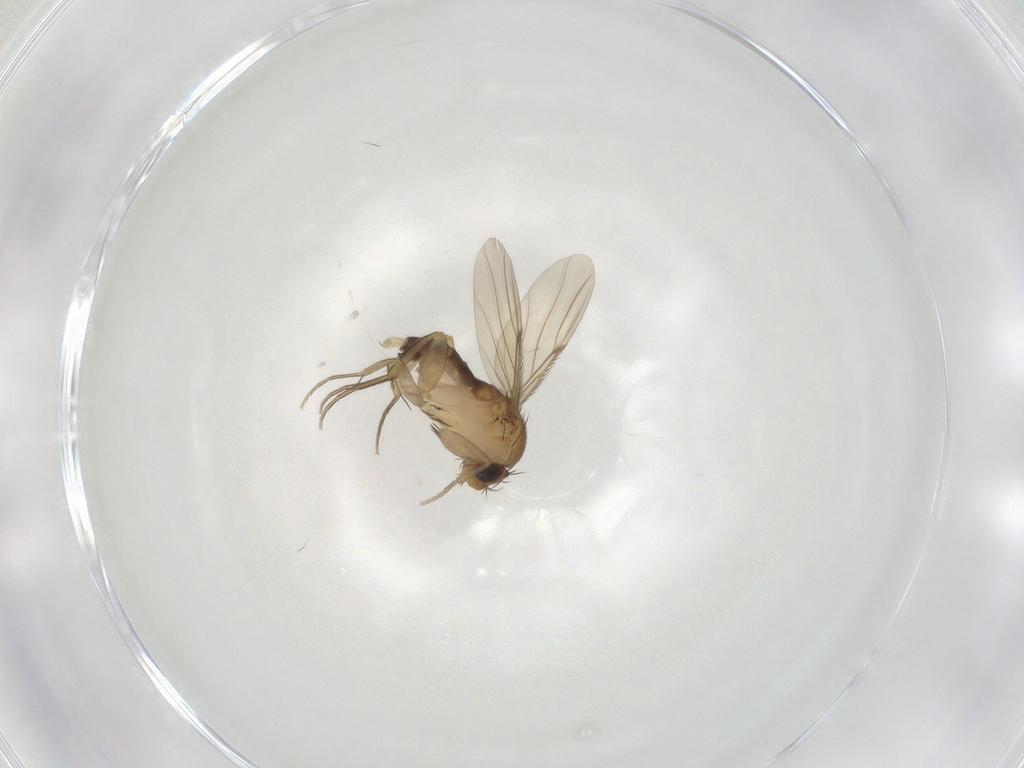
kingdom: Animalia
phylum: Arthropoda
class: Insecta
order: Diptera
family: Phoridae
